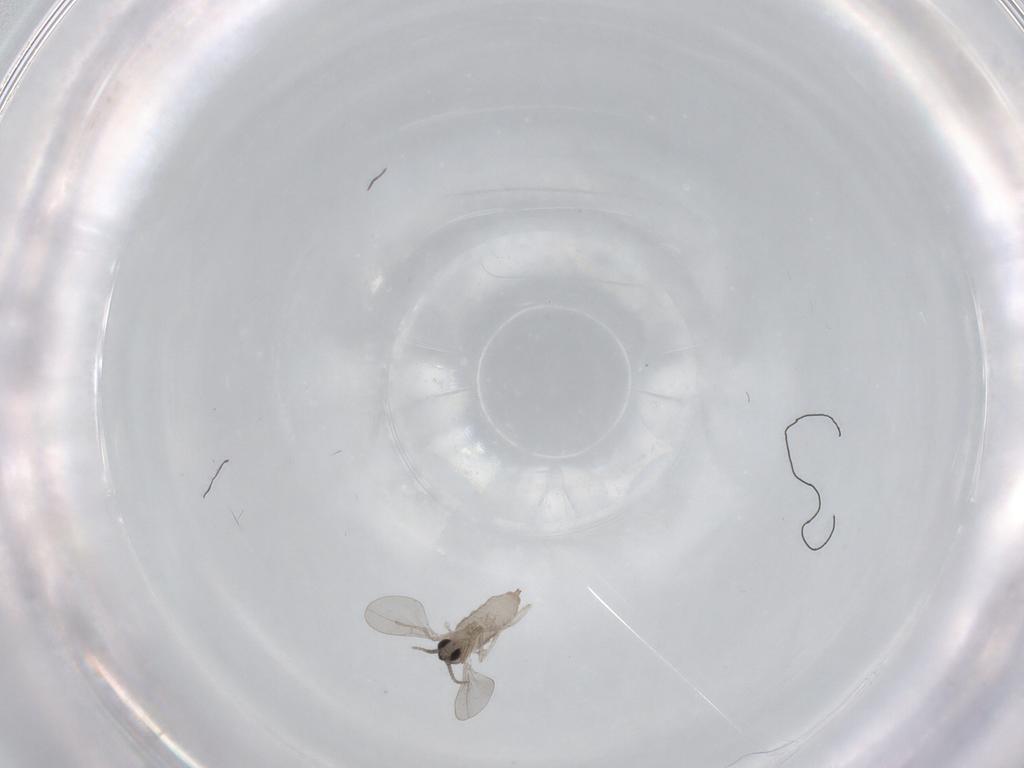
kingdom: Animalia
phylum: Arthropoda
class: Insecta
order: Diptera
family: Cecidomyiidae
